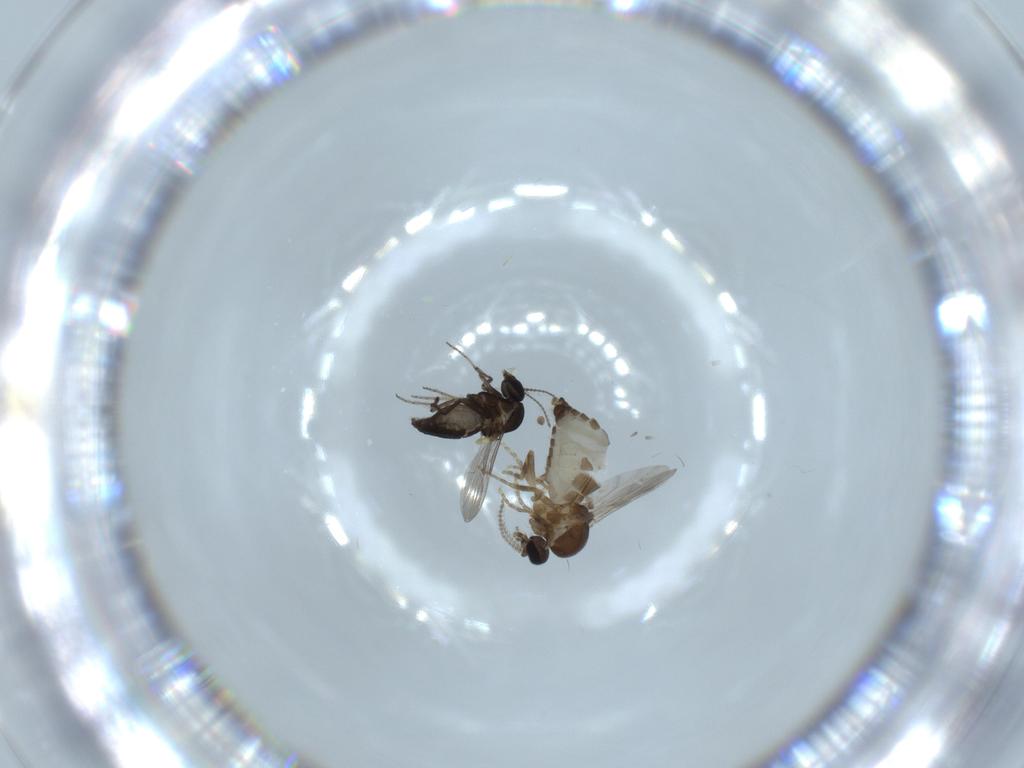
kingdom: Animalia
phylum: Arthropoda
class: Insecta
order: Diptera
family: Ceratopogonidae
